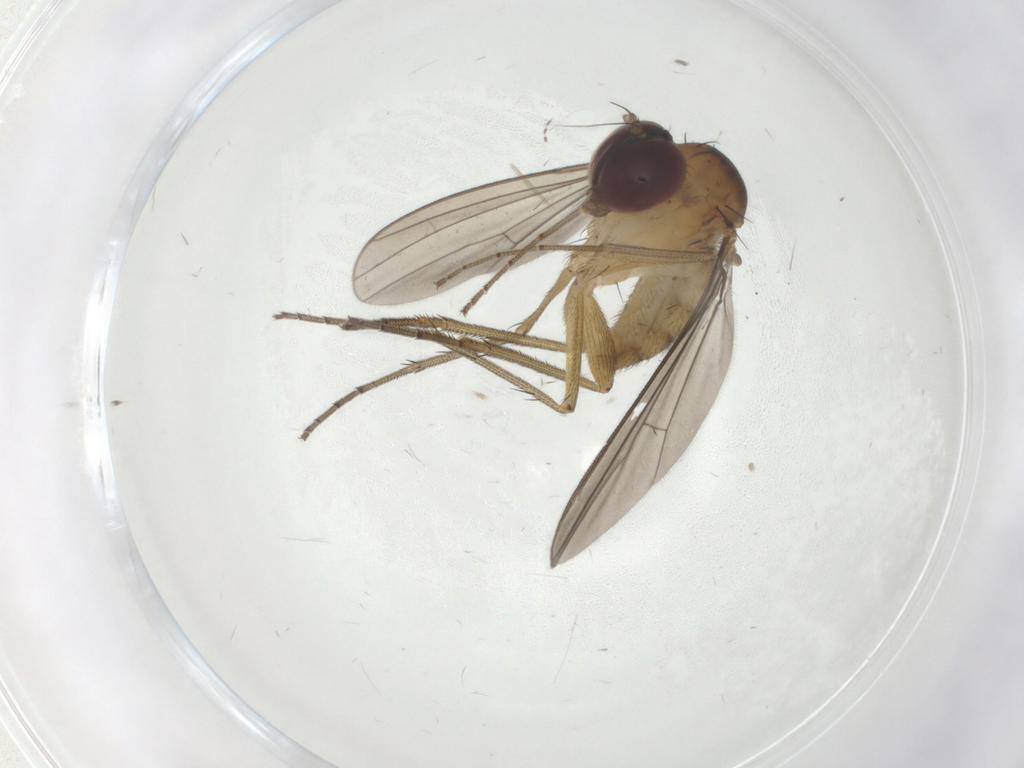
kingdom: Animalia
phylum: Arthropoda
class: Insecta
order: Diptera
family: Dolichopodidae
